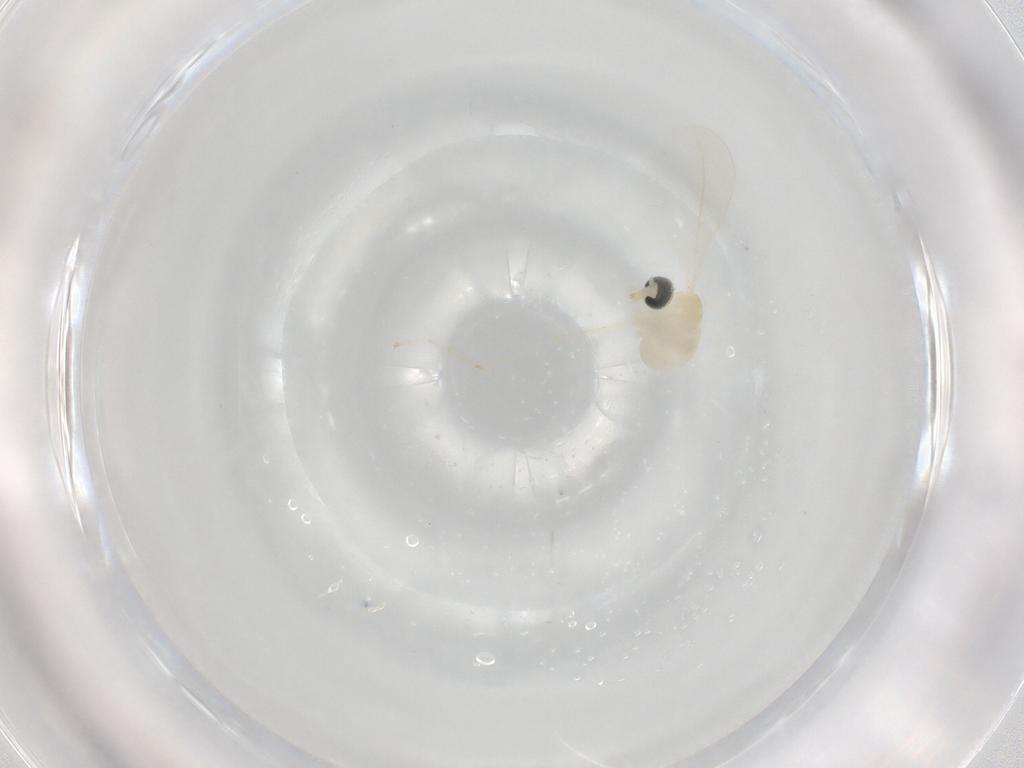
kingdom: Animalia
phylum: Arthropoda
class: Insecta
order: Diptera
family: Cecidomyiidae
